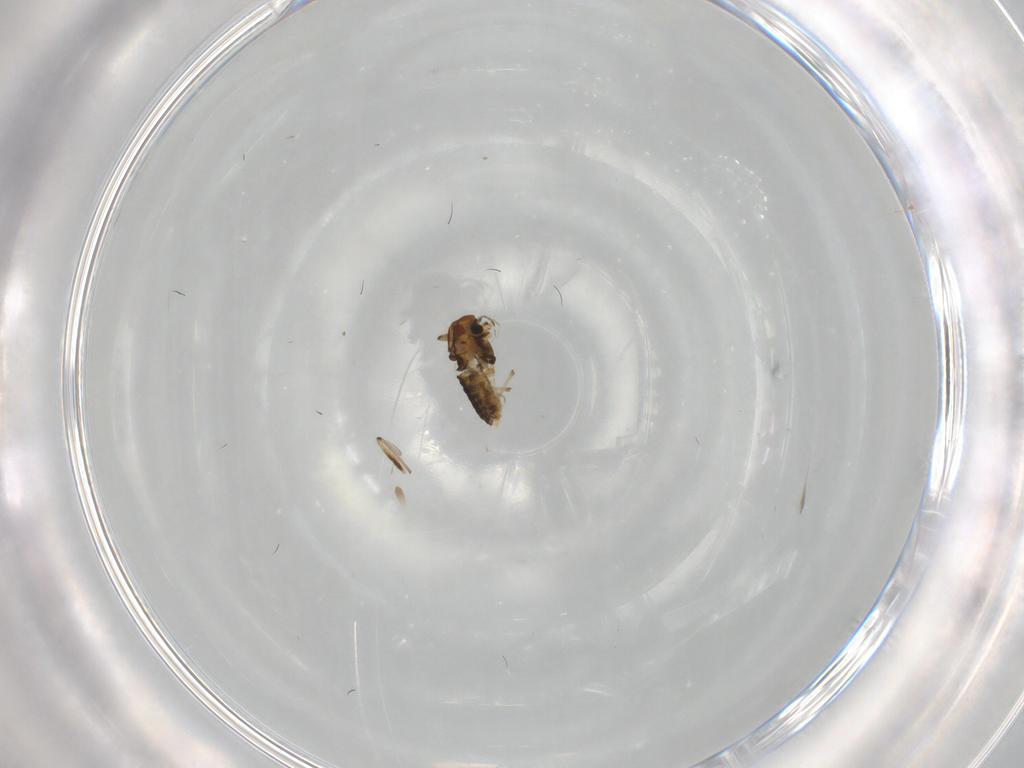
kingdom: Animalia
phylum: Arthropoda
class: Insecta
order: Diptera
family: Chironomidae
